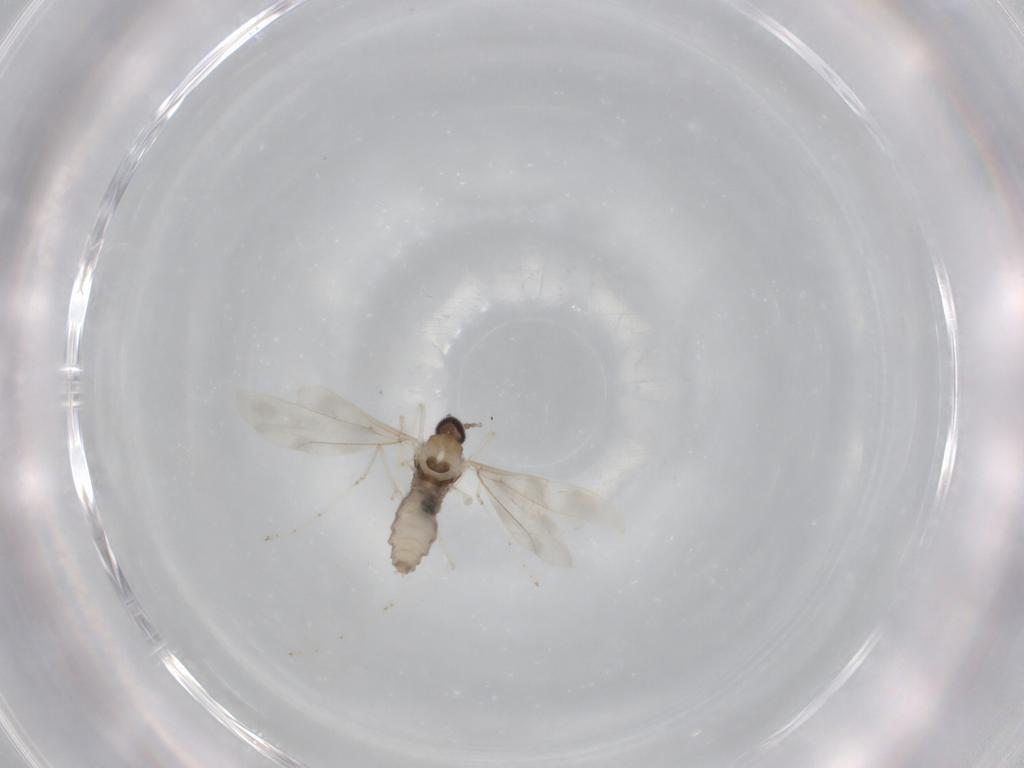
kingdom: Animalia
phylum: Arthropoda
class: Insecta
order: Diptera
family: Cecidomyiidae
